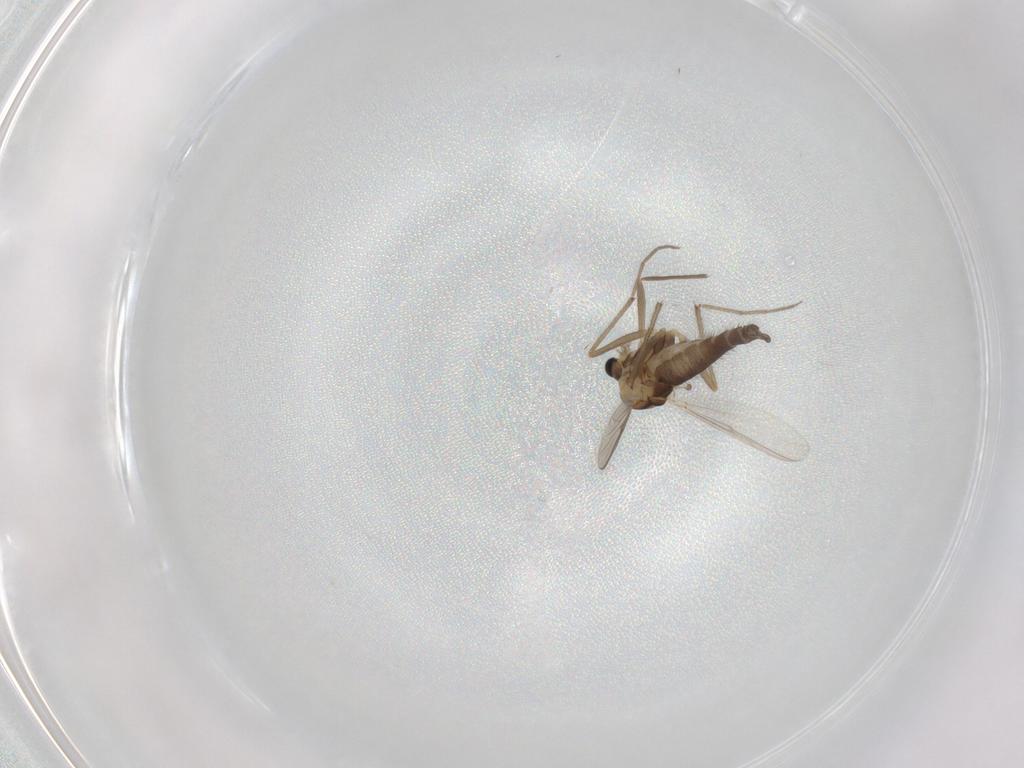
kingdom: Animalia
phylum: Arthropoda
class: Insecta
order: Diptera
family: Chironomidae
